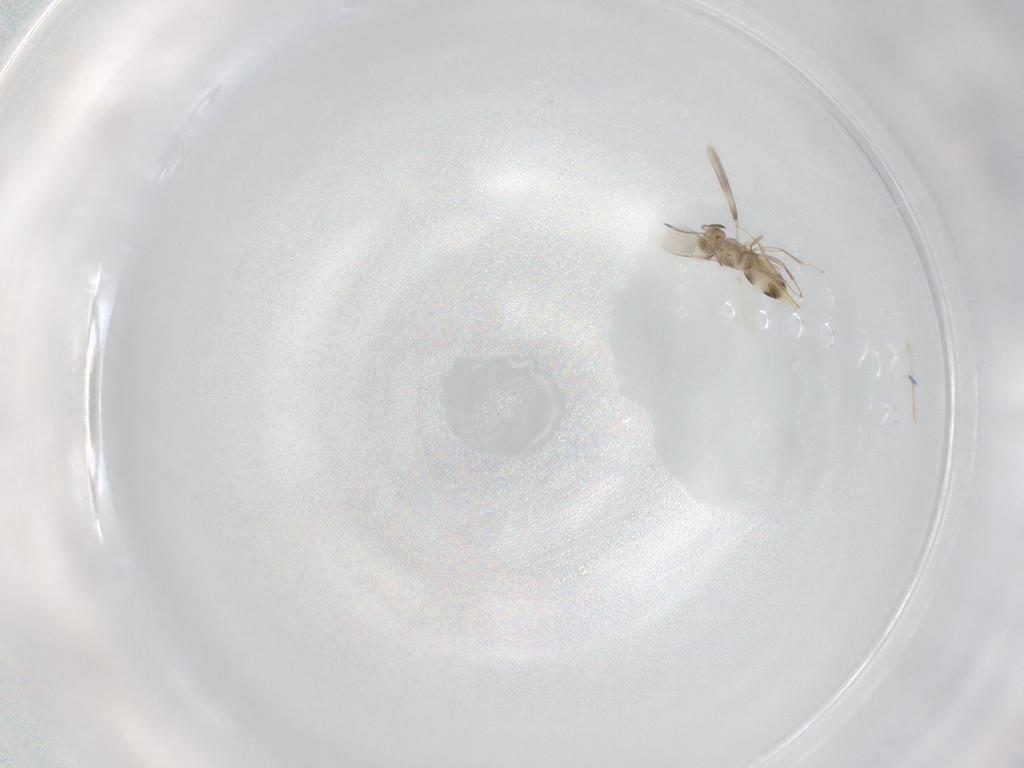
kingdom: Animalia
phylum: Arthropoda
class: Insecta
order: Hymenoptera
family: Aphelinidae
